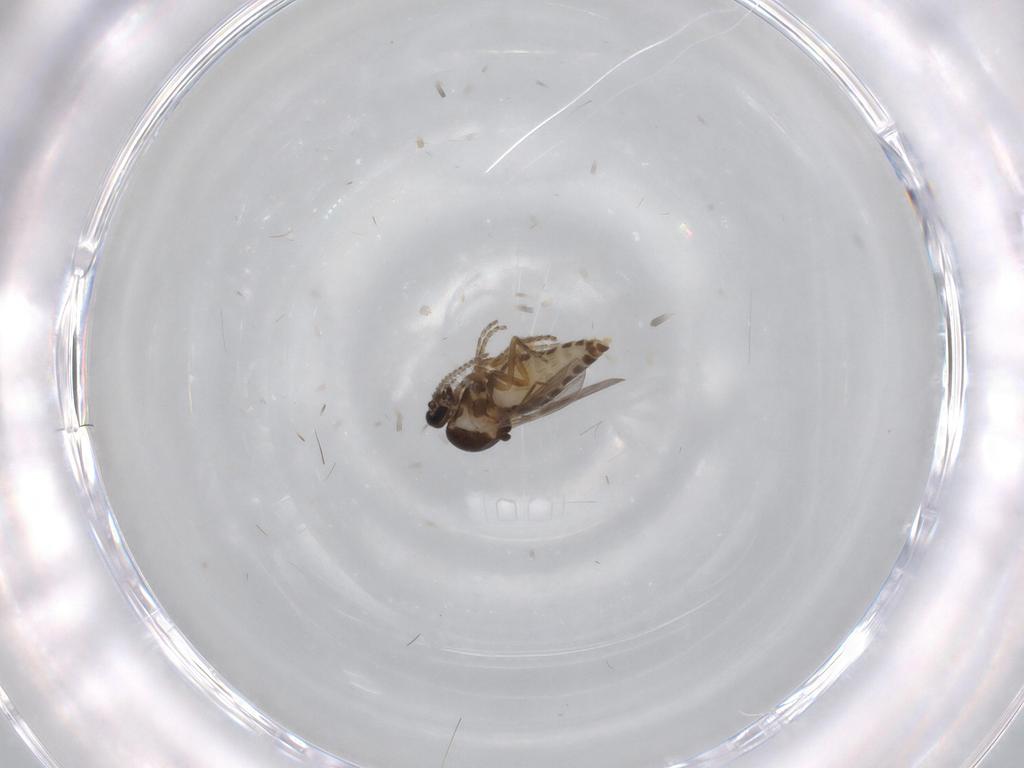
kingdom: Animalia
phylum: Arthropoda
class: Insecta
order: Diptera
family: Ceratopogonidae
